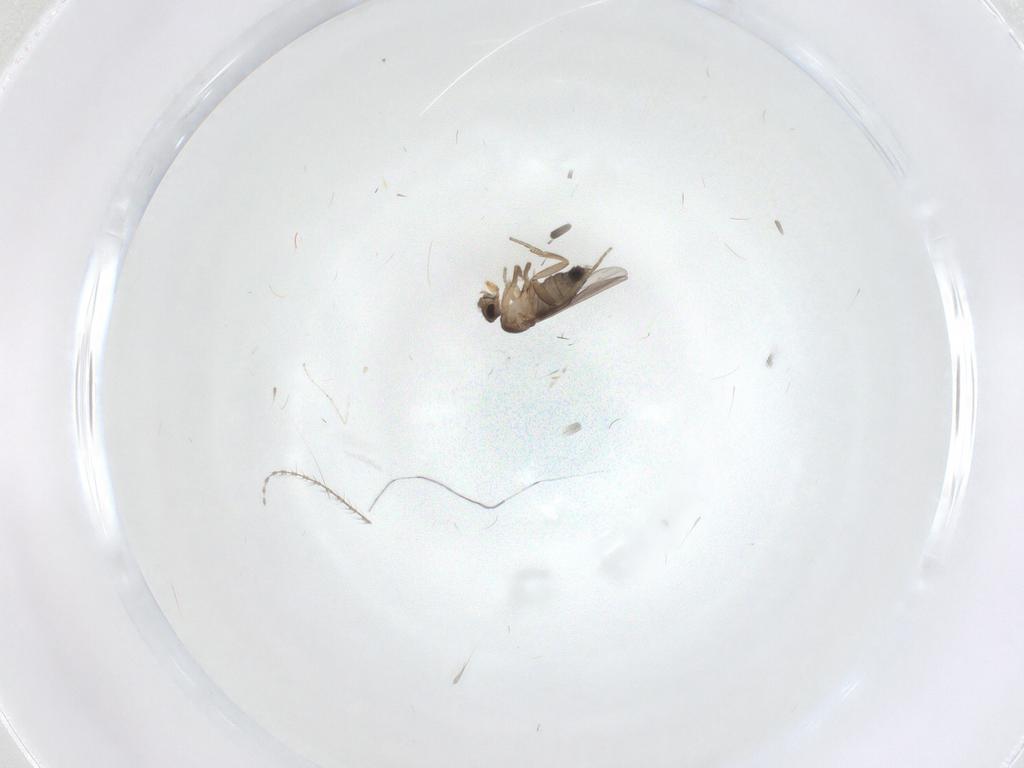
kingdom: Animalia
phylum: Arthropoda
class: Insecta
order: Diptera
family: Phoridae
